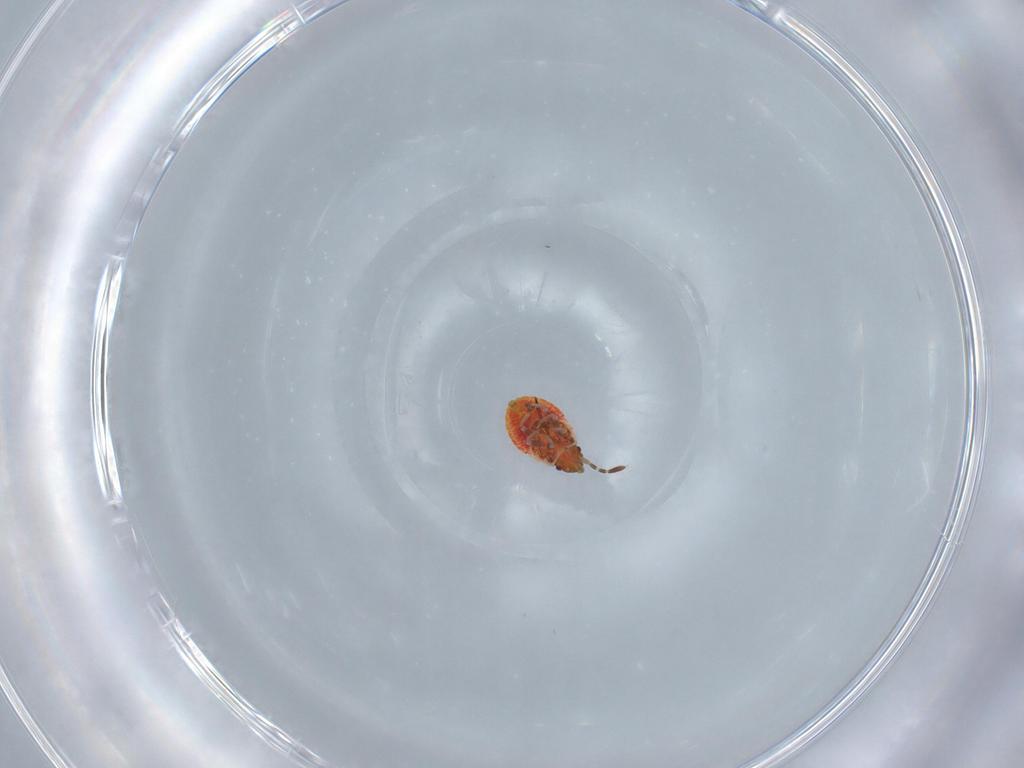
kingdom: Animalia
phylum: Arthropoda
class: Insecta
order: Hemiptera
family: Rhyparochromidae
